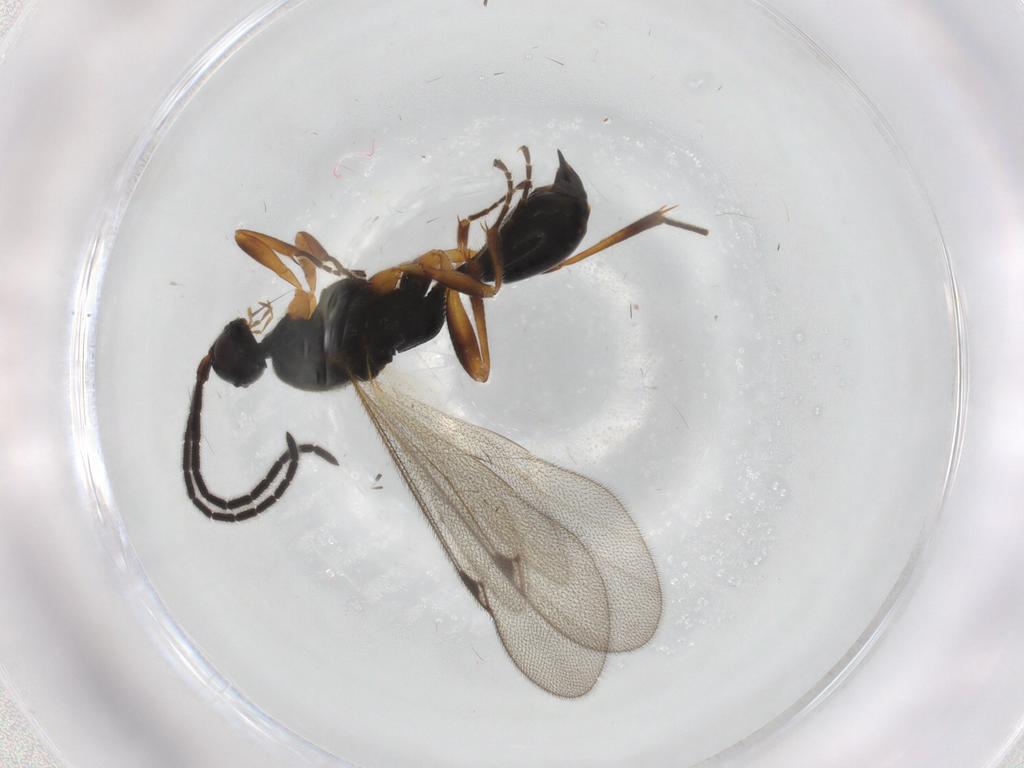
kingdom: Animalia
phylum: Arthropoda
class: Insecta
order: Hymenoptera
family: Proctotrupidae
